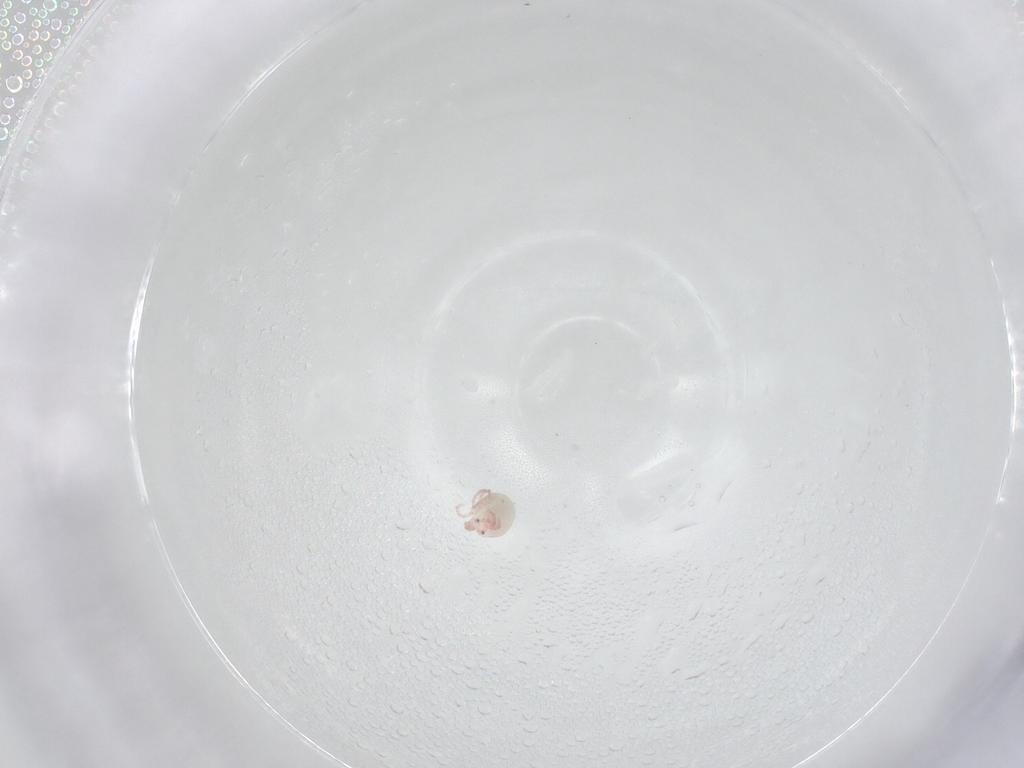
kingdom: Animalia
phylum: Arthropoda
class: Arachnida
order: Trombidiformes
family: Pionidae
